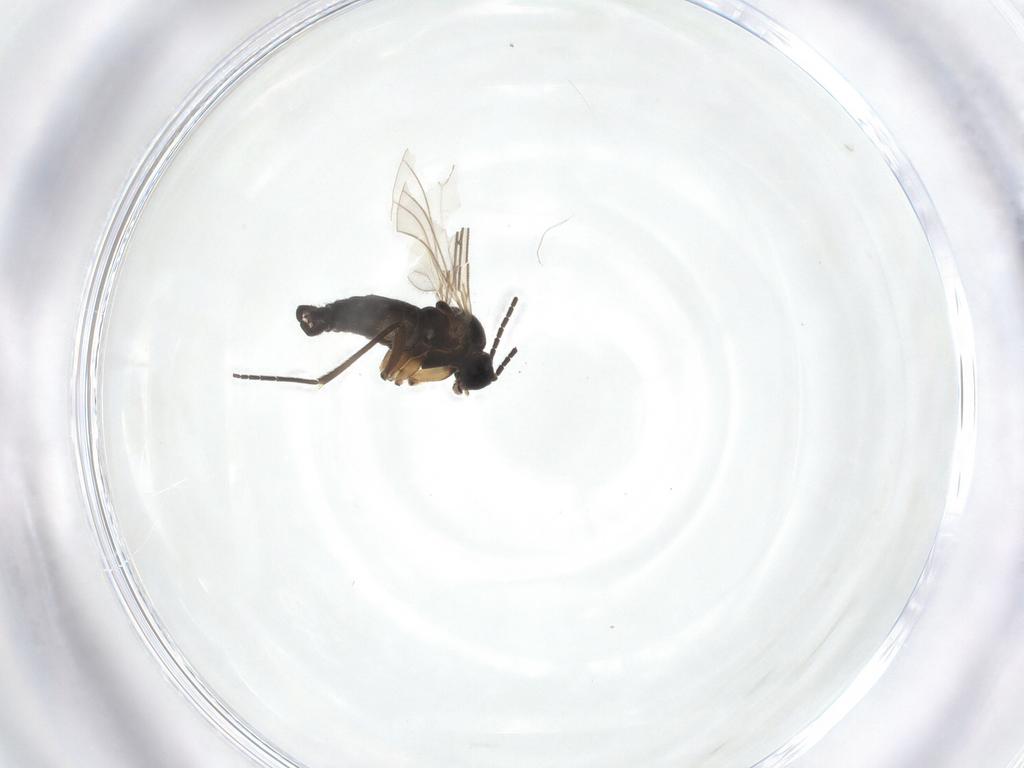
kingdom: Animalia
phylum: Arthropoda
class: Insecta
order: Diptera
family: Sciaridae
